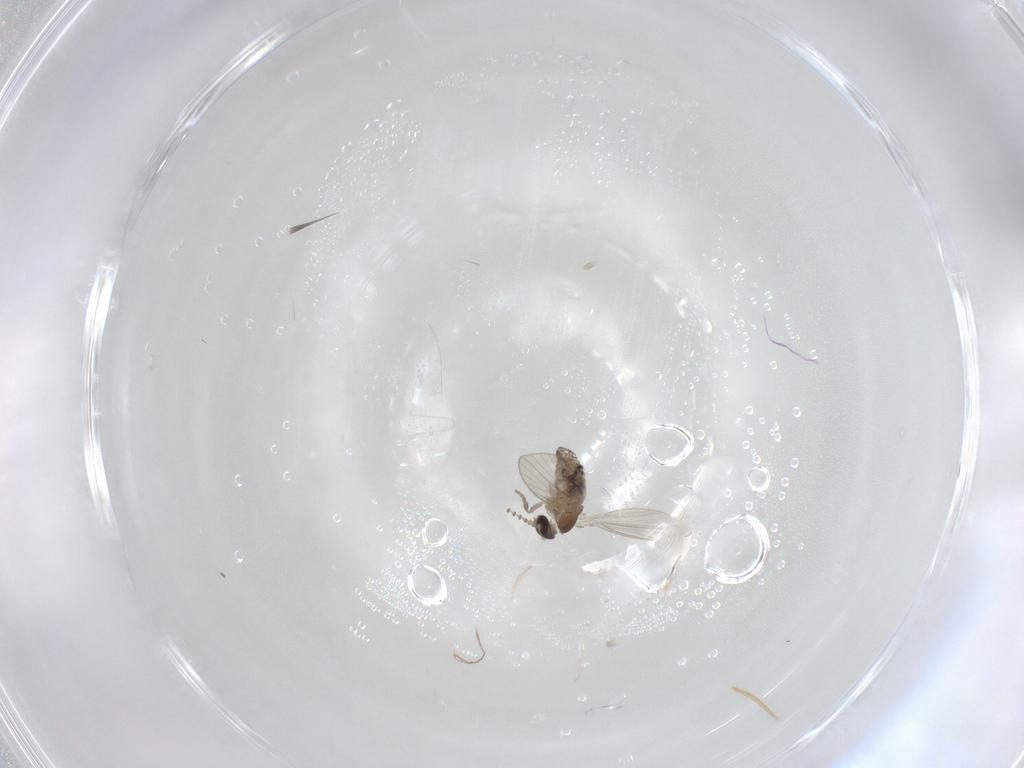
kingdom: Animalia
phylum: Arthropoda
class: Insecta
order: Diptera
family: Psychodidae
